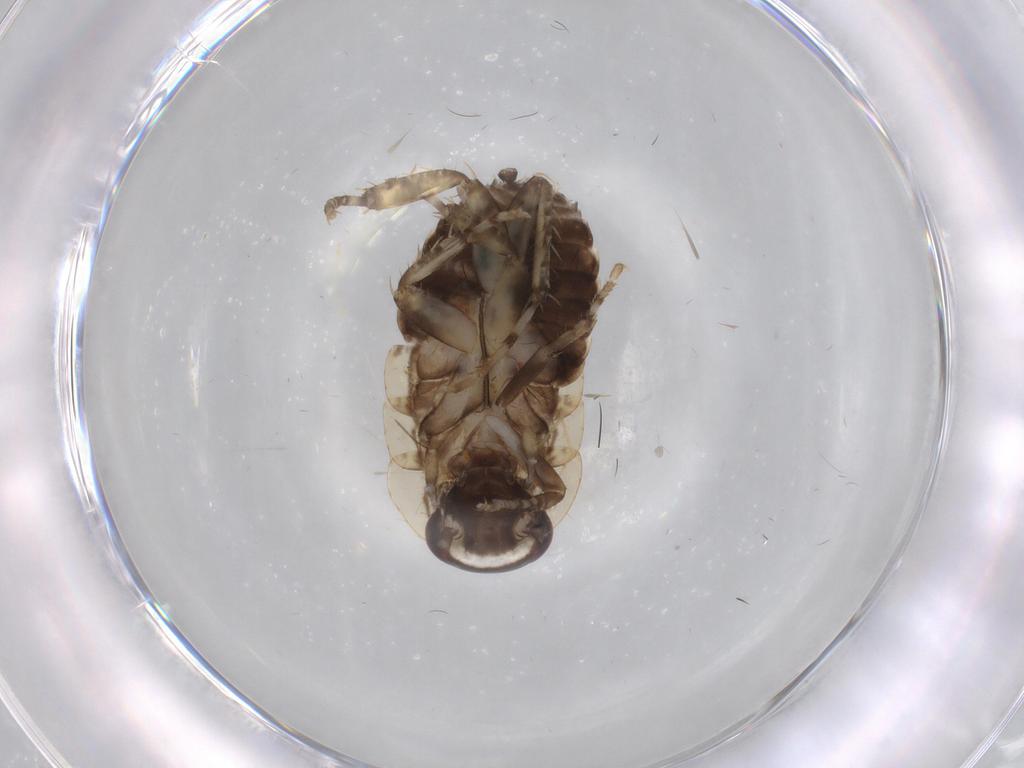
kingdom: Animalia
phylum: Arthropoda
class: Insecta
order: Blattodea
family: Ectobiidae
